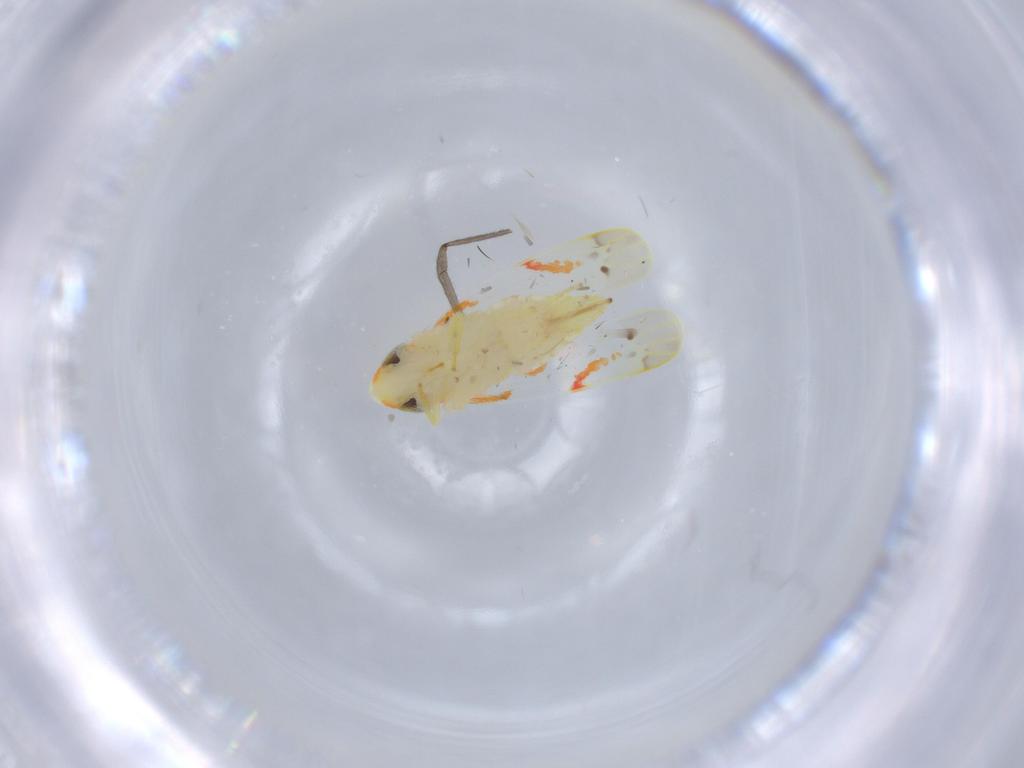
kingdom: Animalia
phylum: Arthropoda
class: Insecta
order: Hemiptera
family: Cicadellidae
